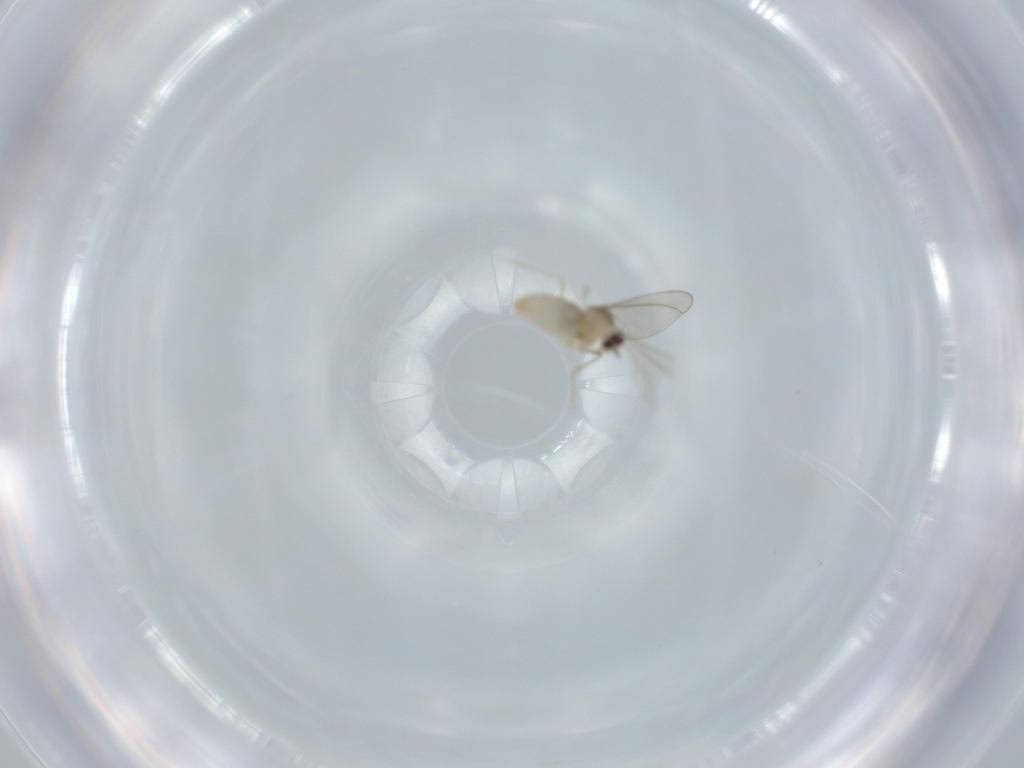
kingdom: Animalia
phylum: Arthropoda
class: Insecta
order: Diptera
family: Cecidomyiidae
